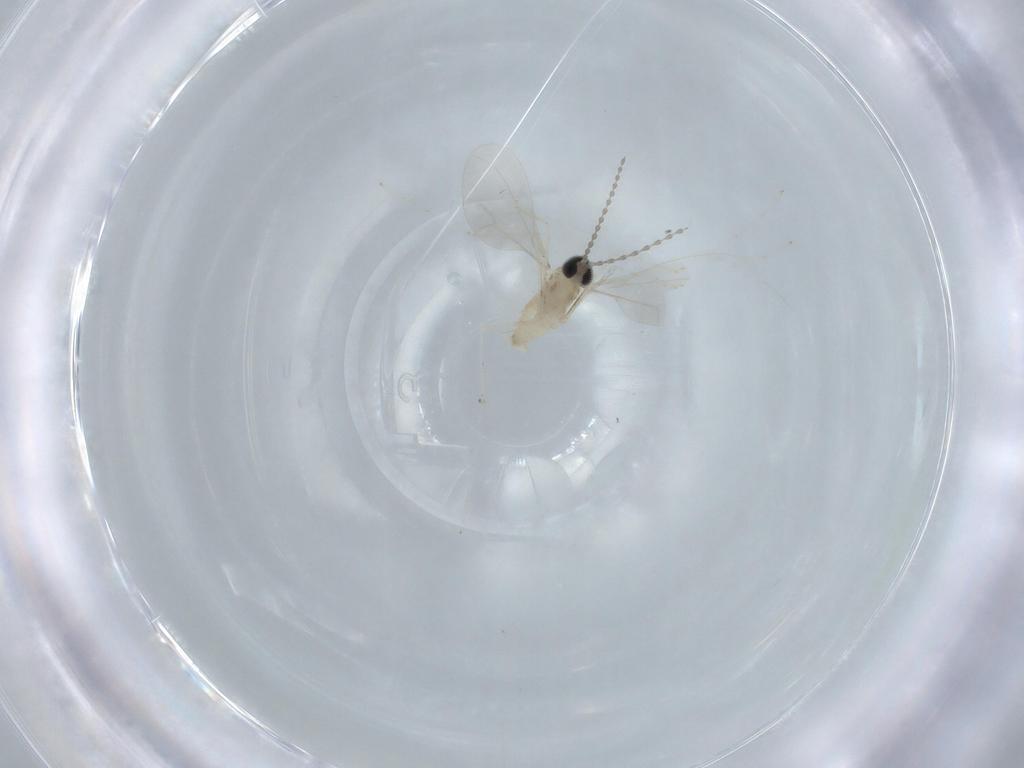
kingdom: Animalia
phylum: Arthropoda
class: Insecta
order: Diptera
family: Cecidomyiidae
